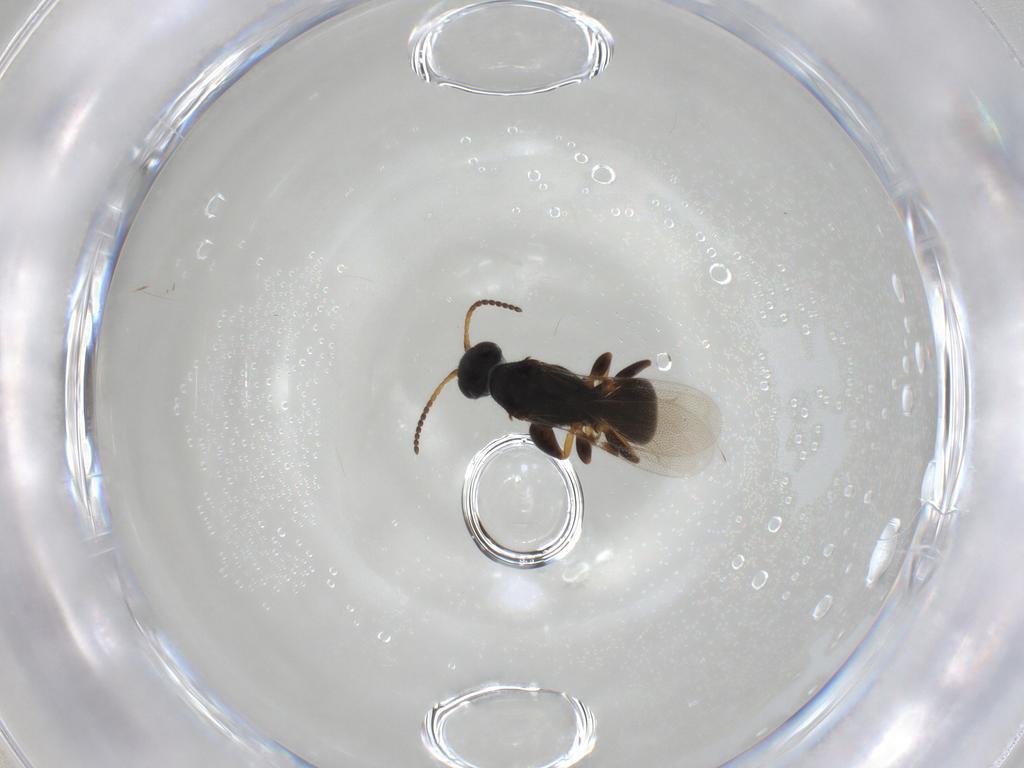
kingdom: Animalia
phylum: Arthropoda
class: Insecta
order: Hymenoptera
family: Bethylidae
